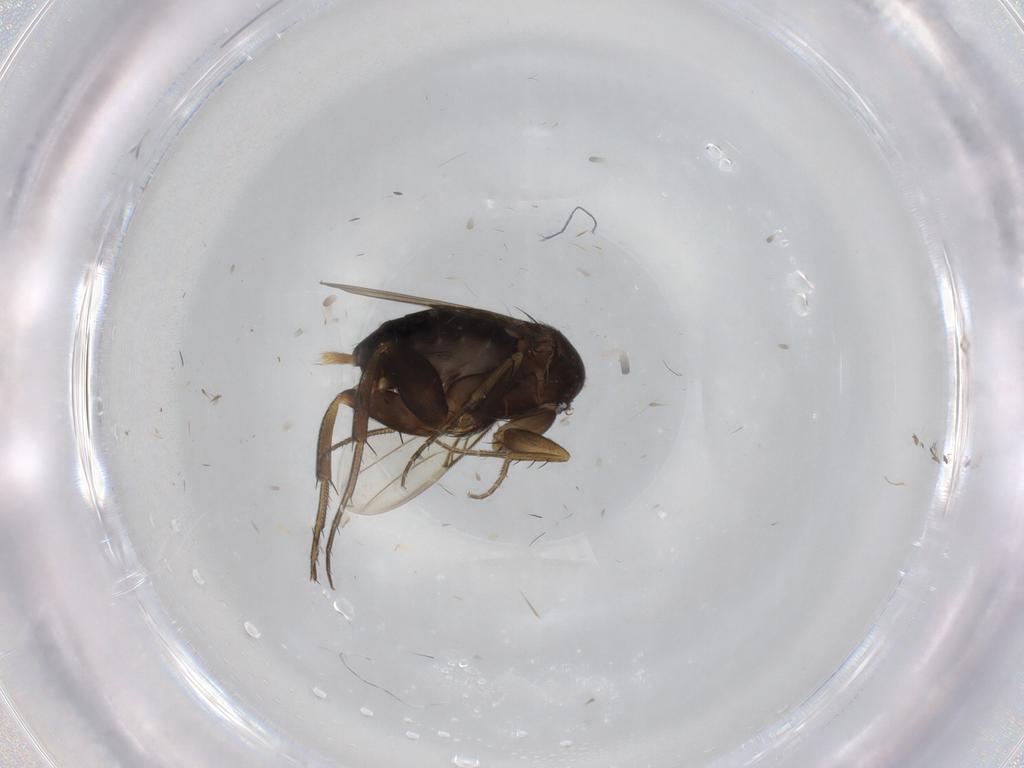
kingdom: Animalia
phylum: Arthropoda
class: Insecta
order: Diptera
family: Phoridae
